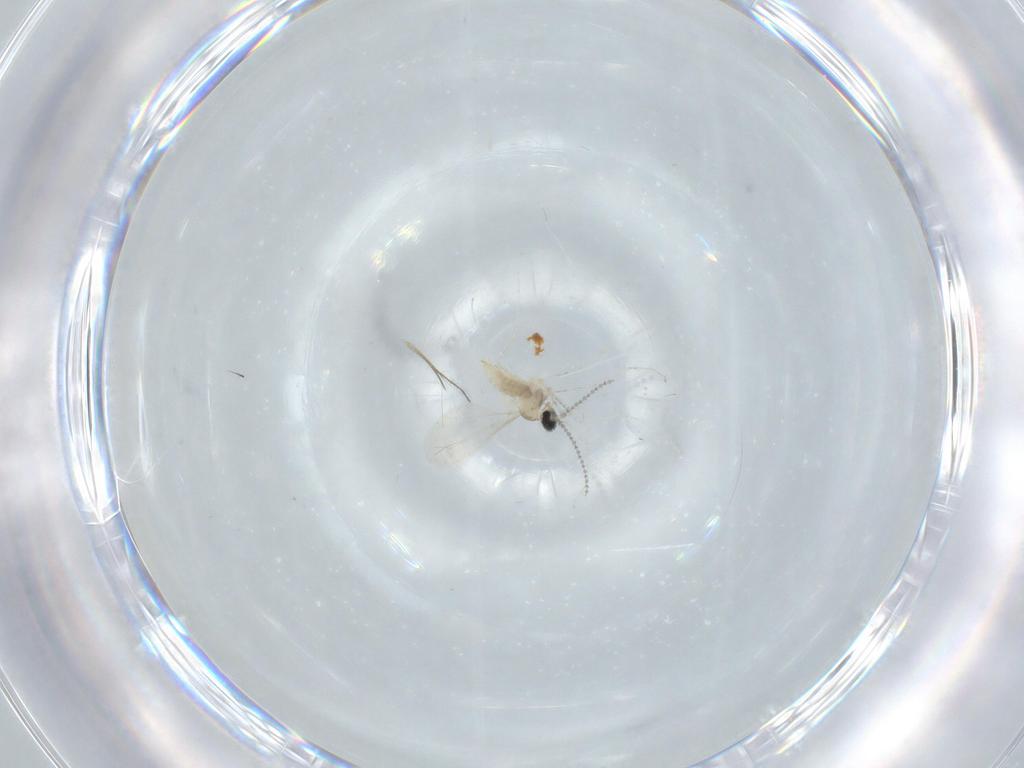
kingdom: Animalia
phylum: Arthropoda
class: Insecta
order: Diptera
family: Ceratopogonidae
